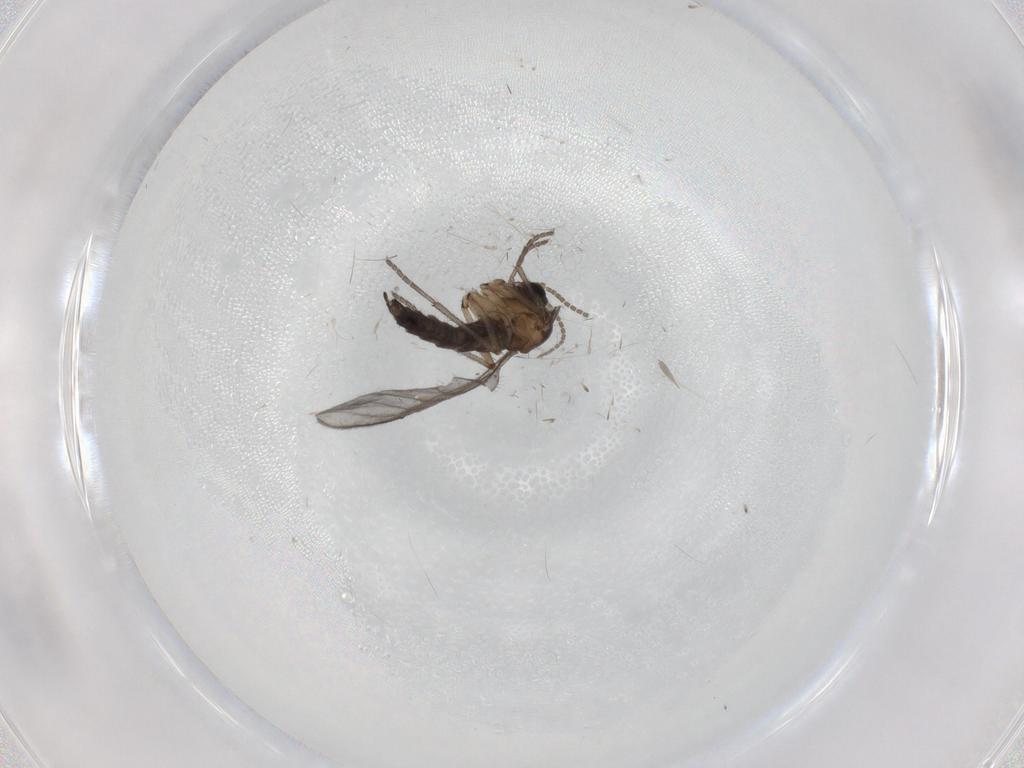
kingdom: Animalia
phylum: Arthropoda
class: Insecta
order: Diptera
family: Sciaridae
